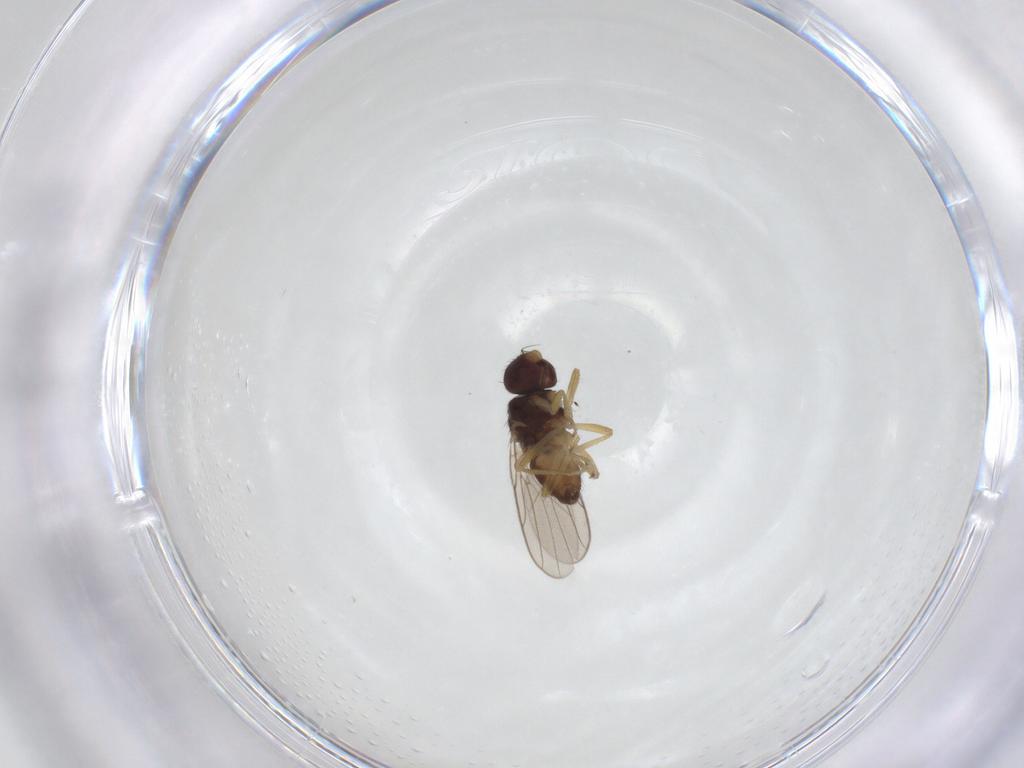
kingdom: Animalia
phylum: Arthropoda
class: Insecta
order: Diptera
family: Chloropidae
